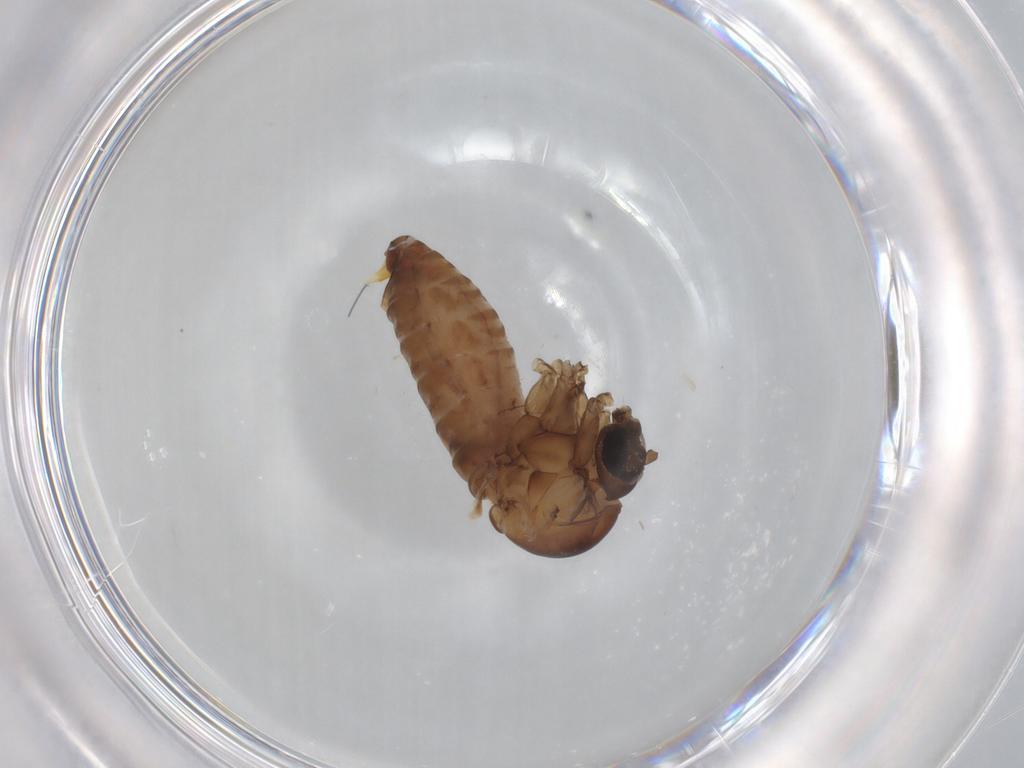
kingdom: Animalia
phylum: Arthropoda
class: Insecta
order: Diptera
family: Psychodidae
